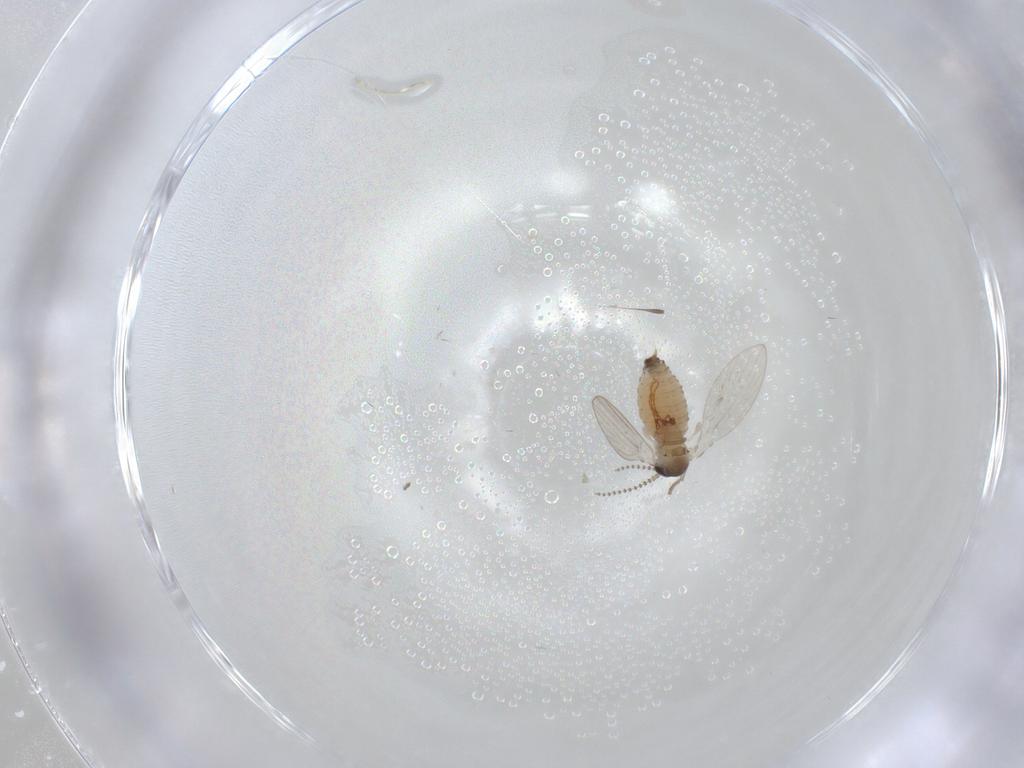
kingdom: Animalia
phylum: Arthropoda
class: Insecta
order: Diptera
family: Psychodidae
